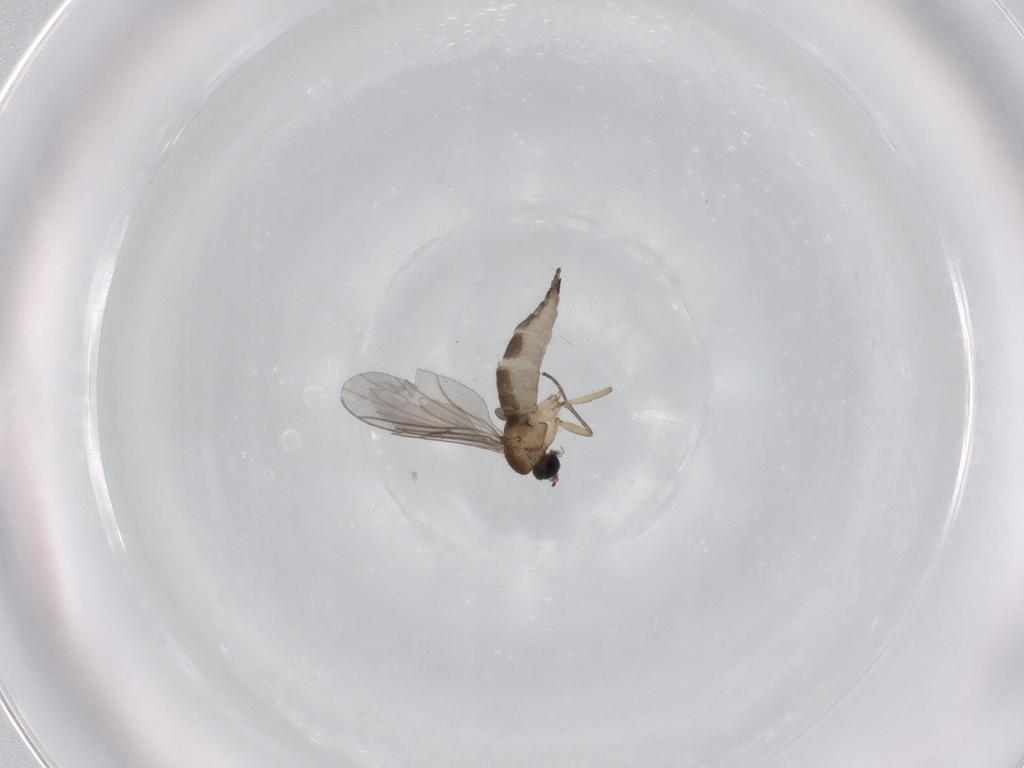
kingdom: Animalia
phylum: Arthropoda
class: Insecta
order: Diptera
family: Sciaridae
